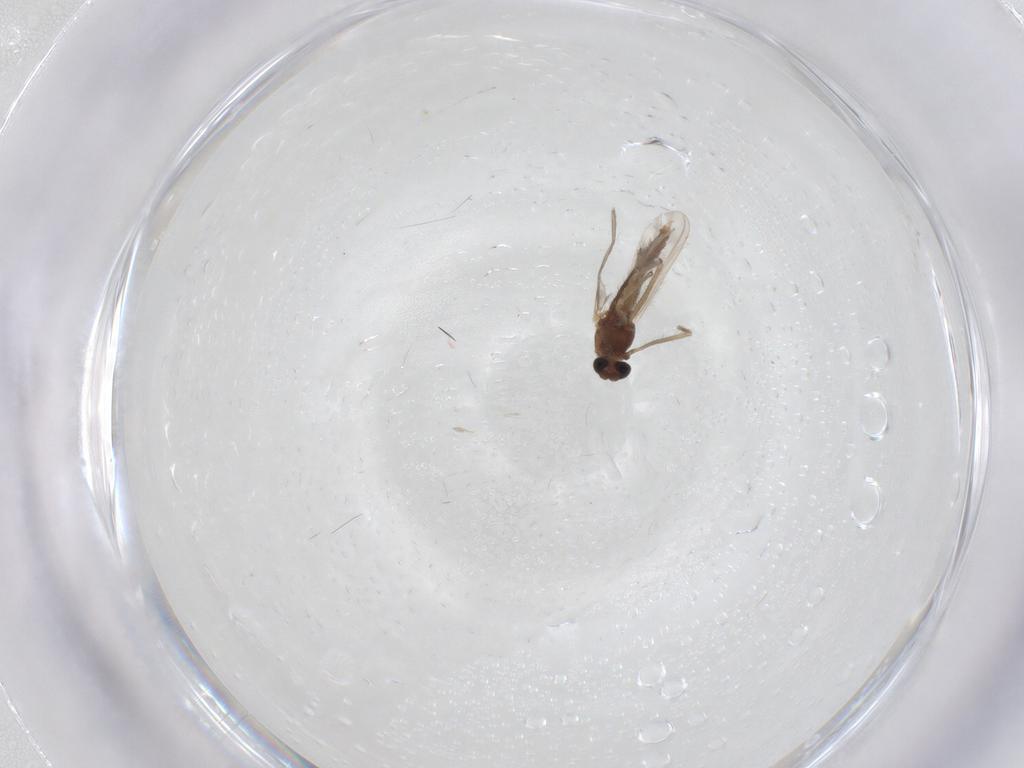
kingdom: Animalia
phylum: Arthropoda
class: Insecta
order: Diptera
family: Chironomidae
